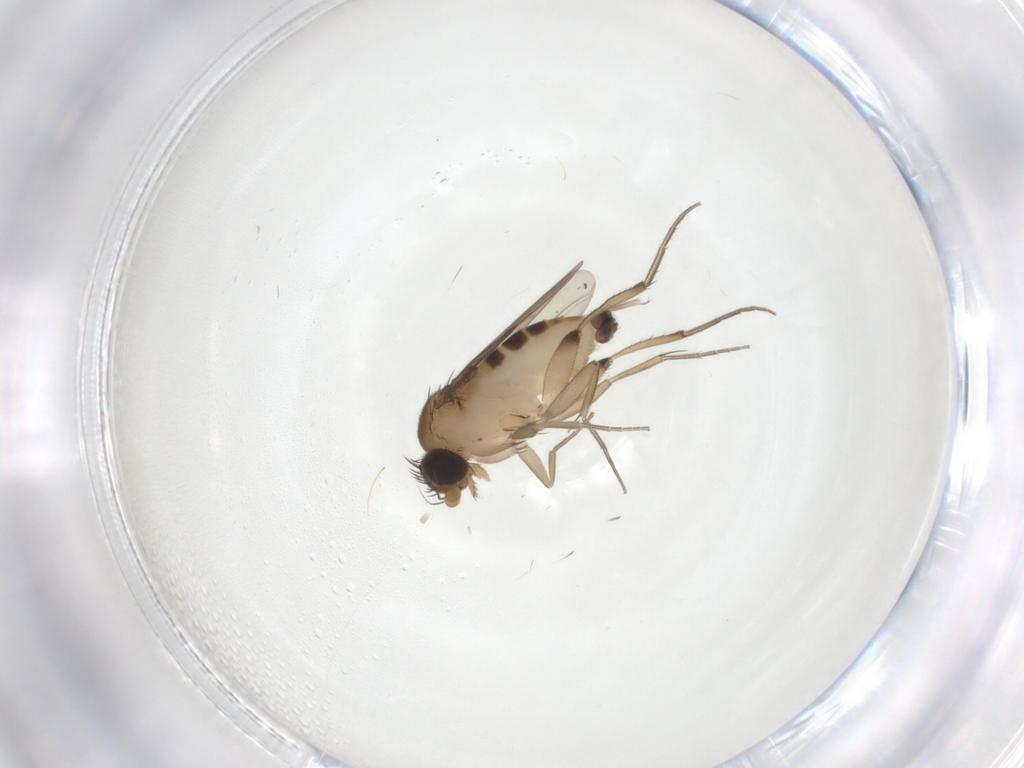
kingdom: Animalia
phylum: Arthropoda
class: Insecta
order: Diptera
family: Phoridae
